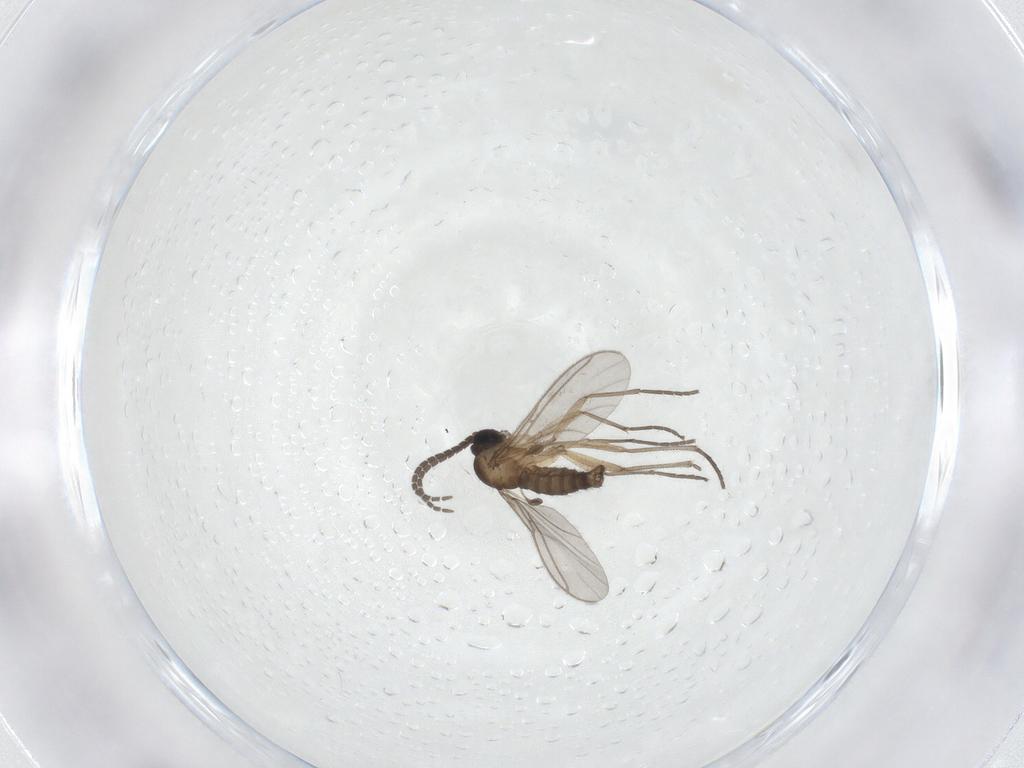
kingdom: Animalia
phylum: Arthropoda
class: Insecta
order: Diptera
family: Sciaridae
